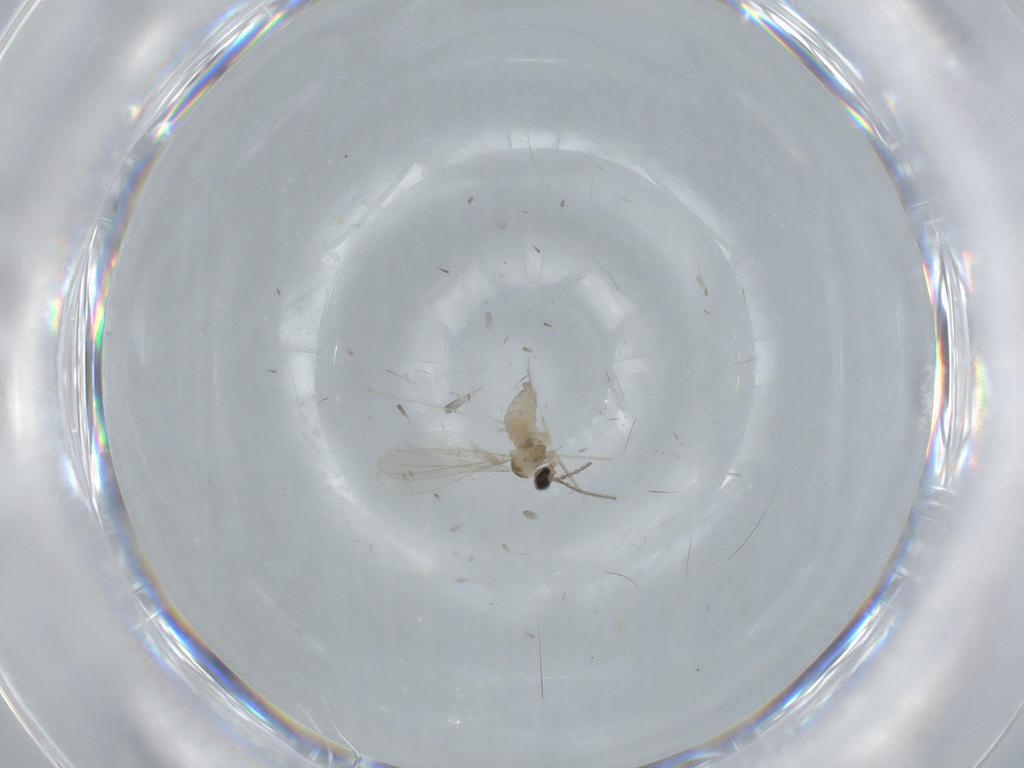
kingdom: Animalia
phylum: Arthropoda
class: Insecta
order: Diptera
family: Cecidomyiidae
